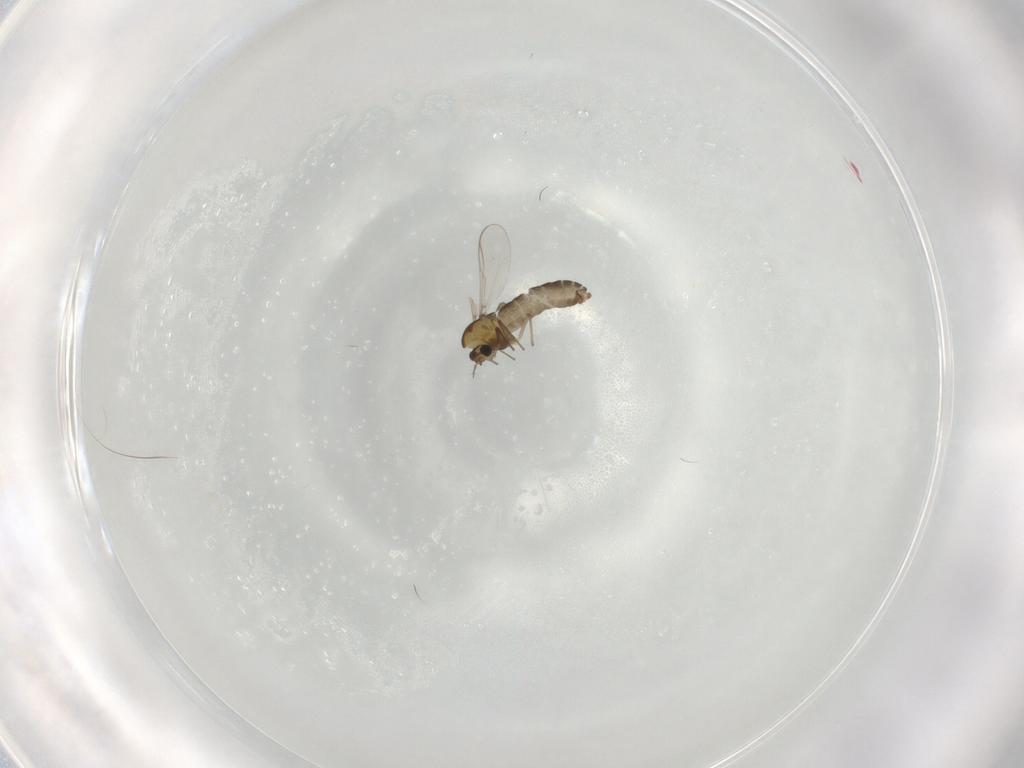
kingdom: Animalia
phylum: Arthropoda
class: Insecta
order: Diptera
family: Chironomidae
